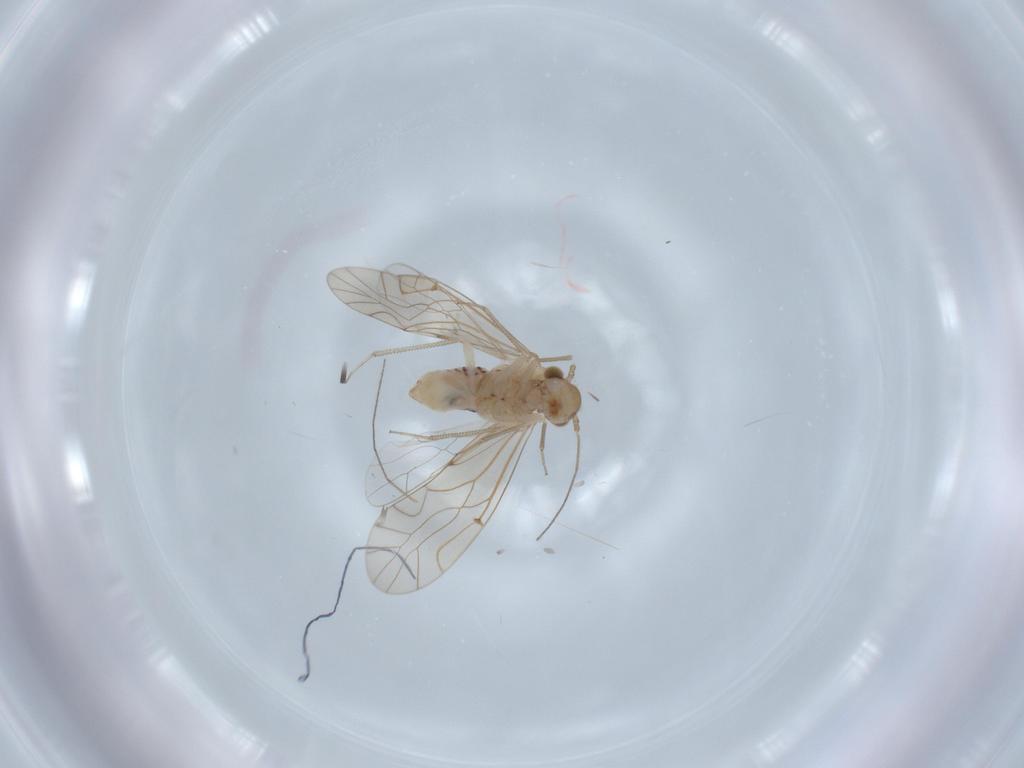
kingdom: Animalia
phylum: Arthropoda
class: Insecta
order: Psocodea
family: Lachesillidae
